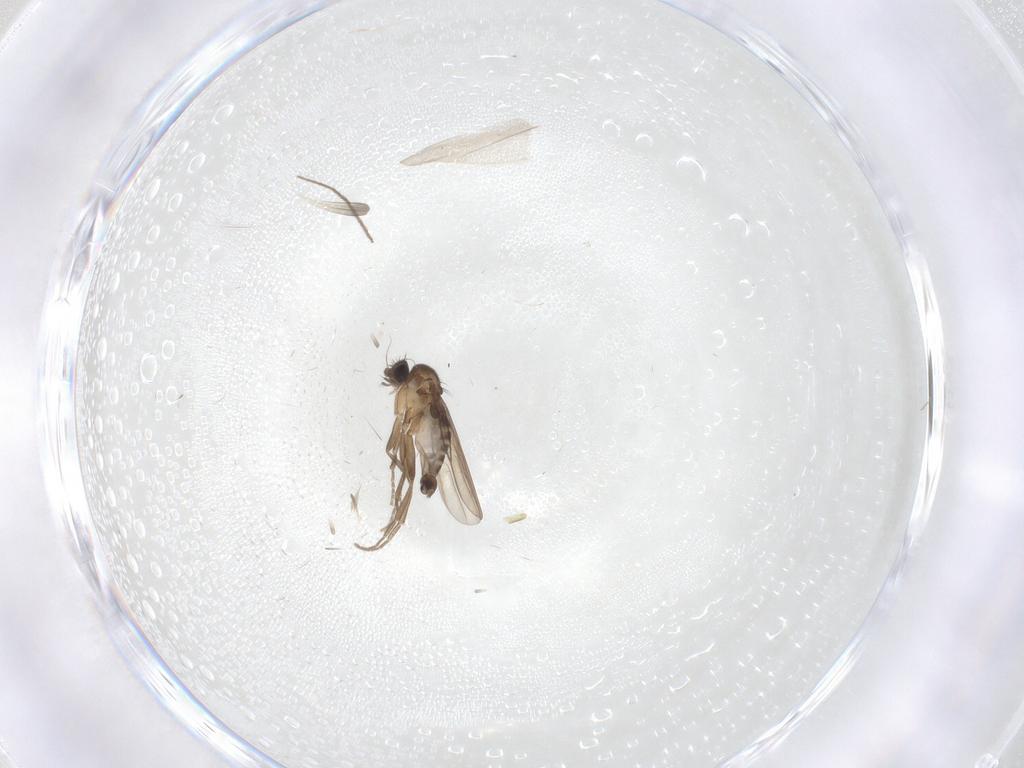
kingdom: Animalia
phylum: Arthropoda
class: Insecta
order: Diptera
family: Phoridae
